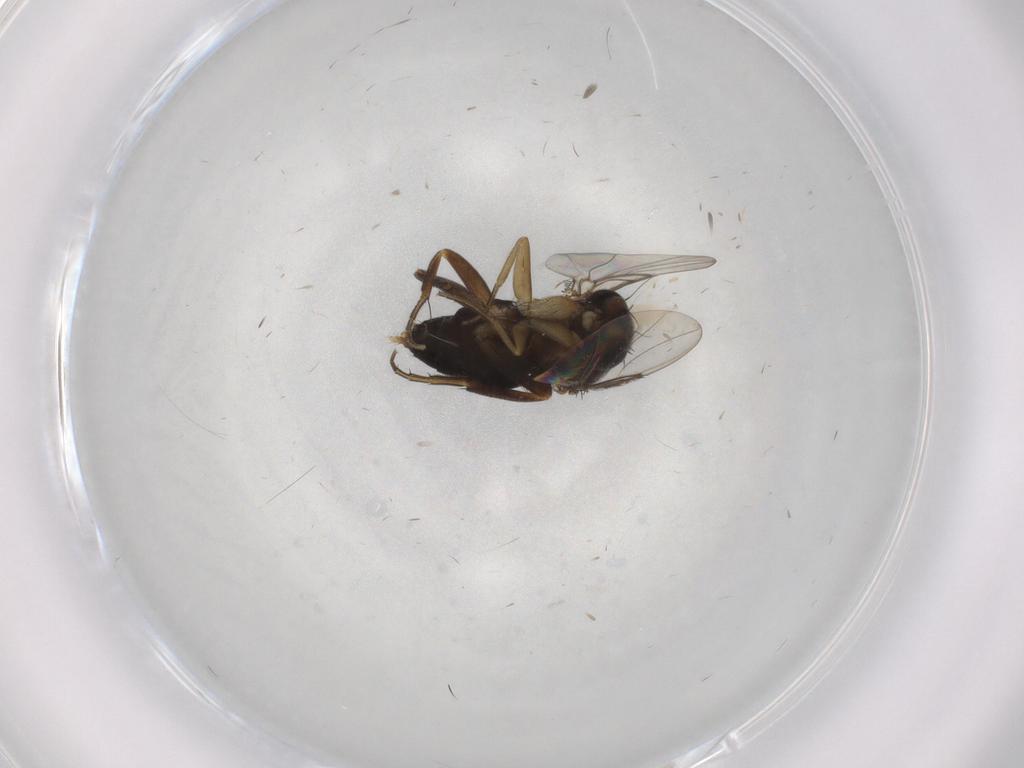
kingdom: Animalia
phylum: Arthropoda
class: Insecta
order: Diptera
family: Phoridae
